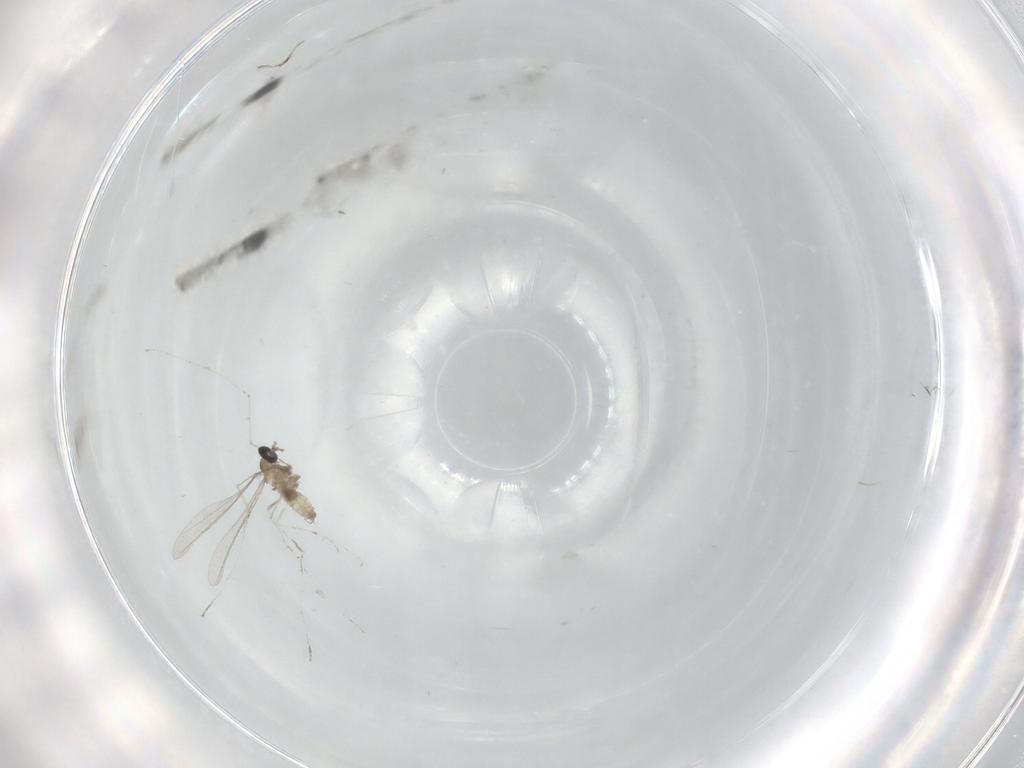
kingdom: Animalia
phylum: Arthropoda
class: Insecta
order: Diptera
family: Cecidomyiidae
